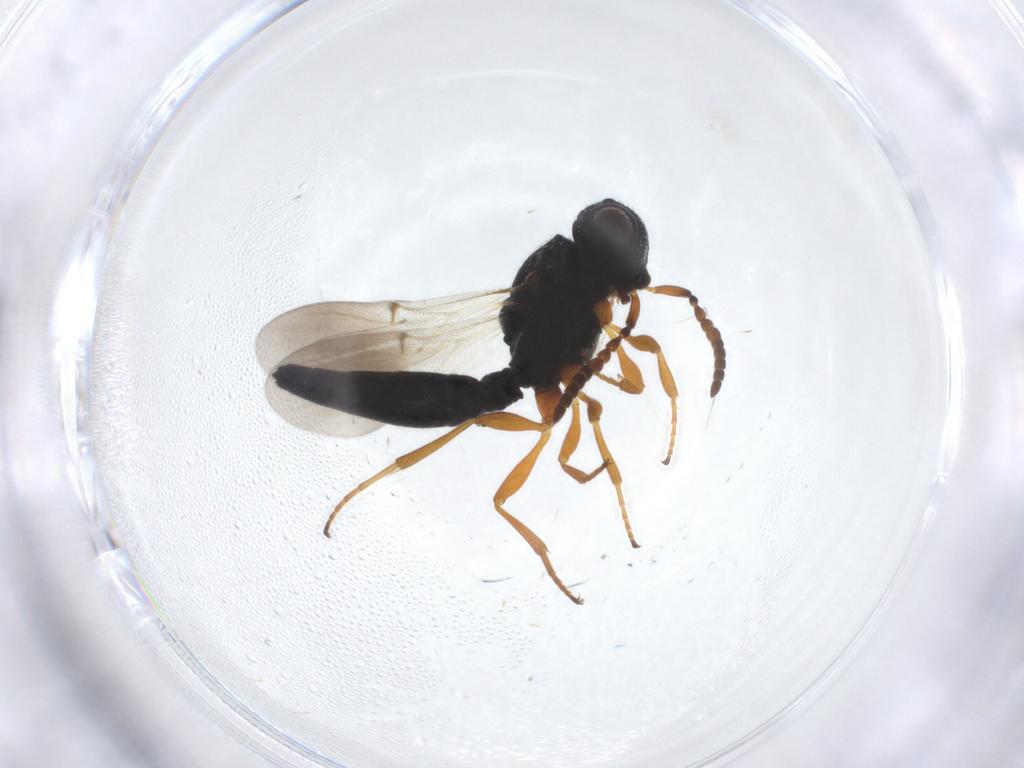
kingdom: Animalia
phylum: Arthropoda
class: Insecta
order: Hymenoptera
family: Scelionidae
